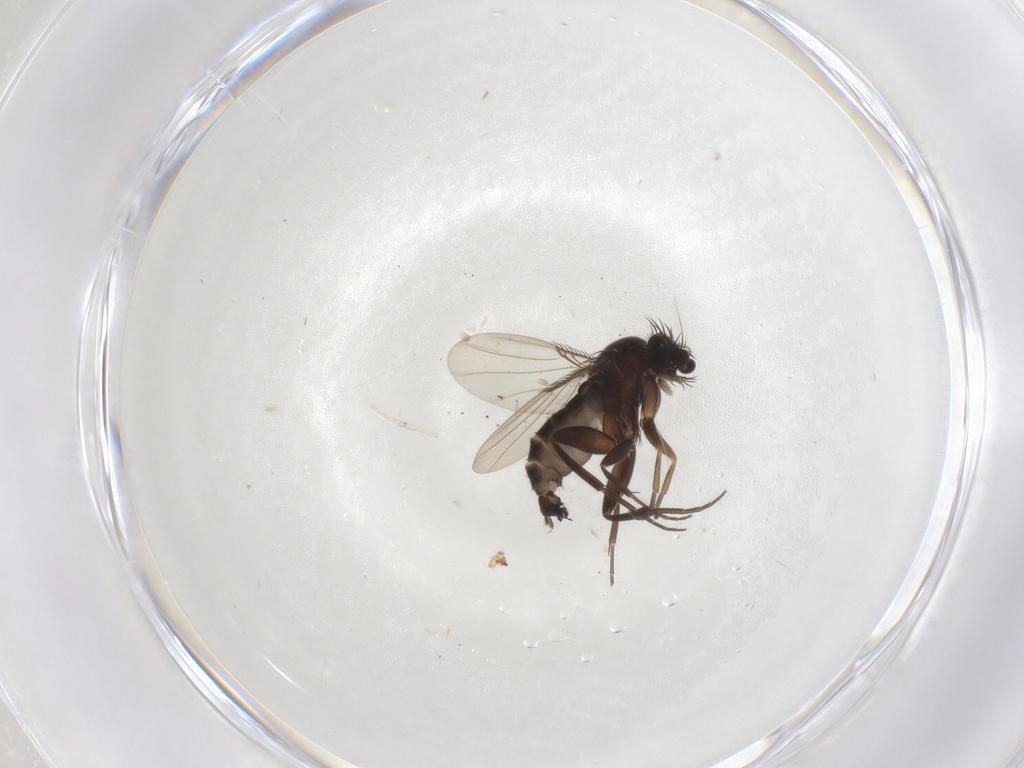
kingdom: Animalia
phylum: Arthropoda
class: Insecta
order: Diptera
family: Phoridae
